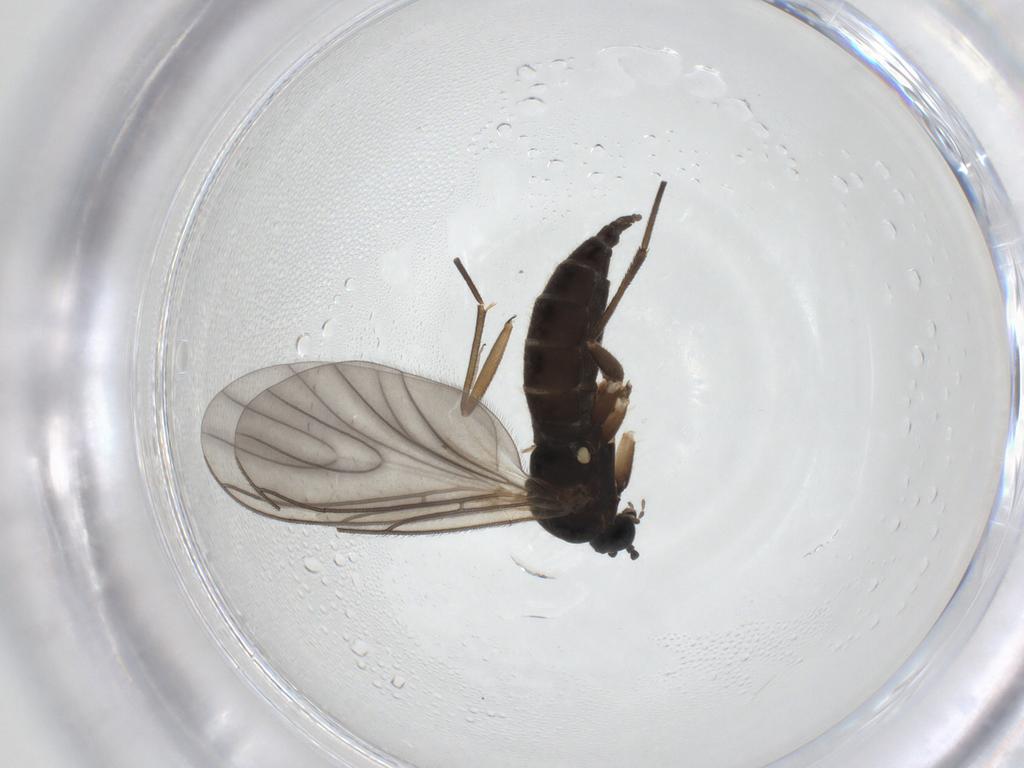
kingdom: Animalia
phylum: Arthropoda
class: Insecta
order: Diptera
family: Sciaridae
